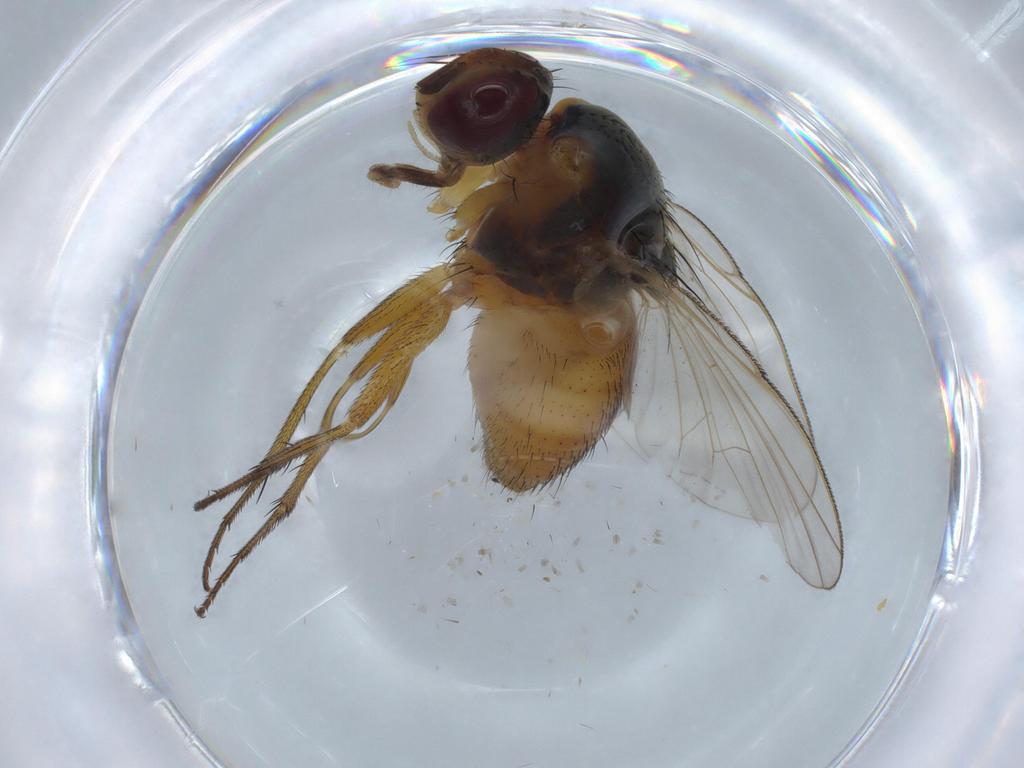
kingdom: Animalia
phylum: Arthropoda
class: Insecta
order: Diptera
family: Muscidae
